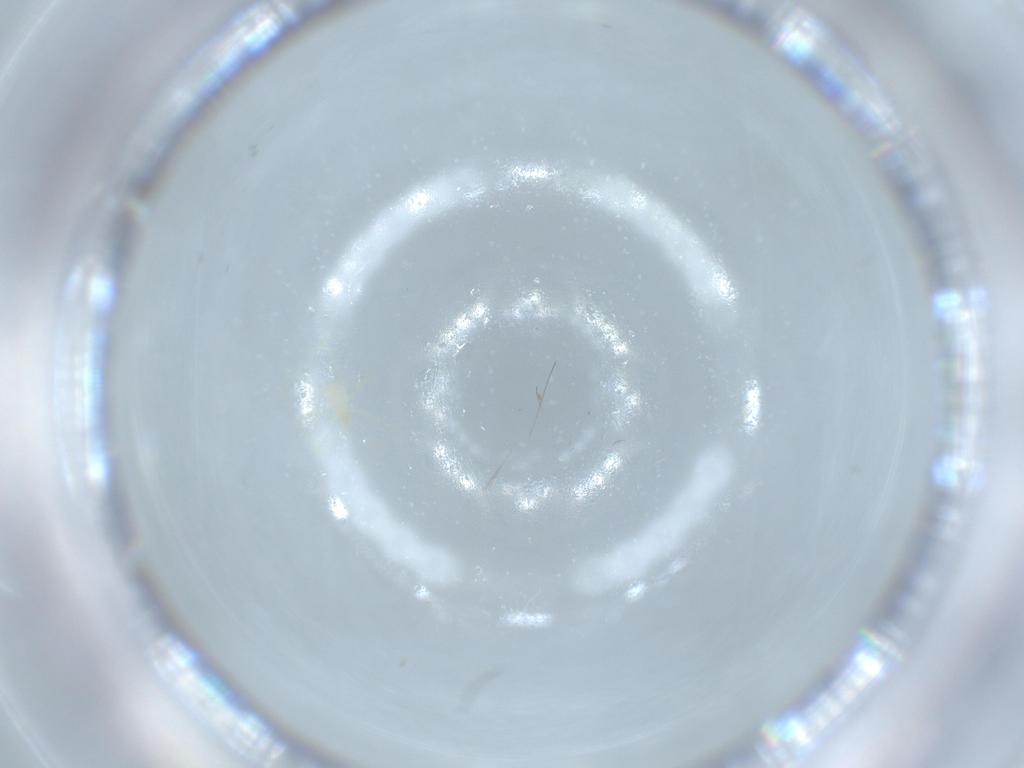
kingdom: Animalia
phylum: Arthropoda
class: Arachnida
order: Trombidiformes
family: Erythraeidae
